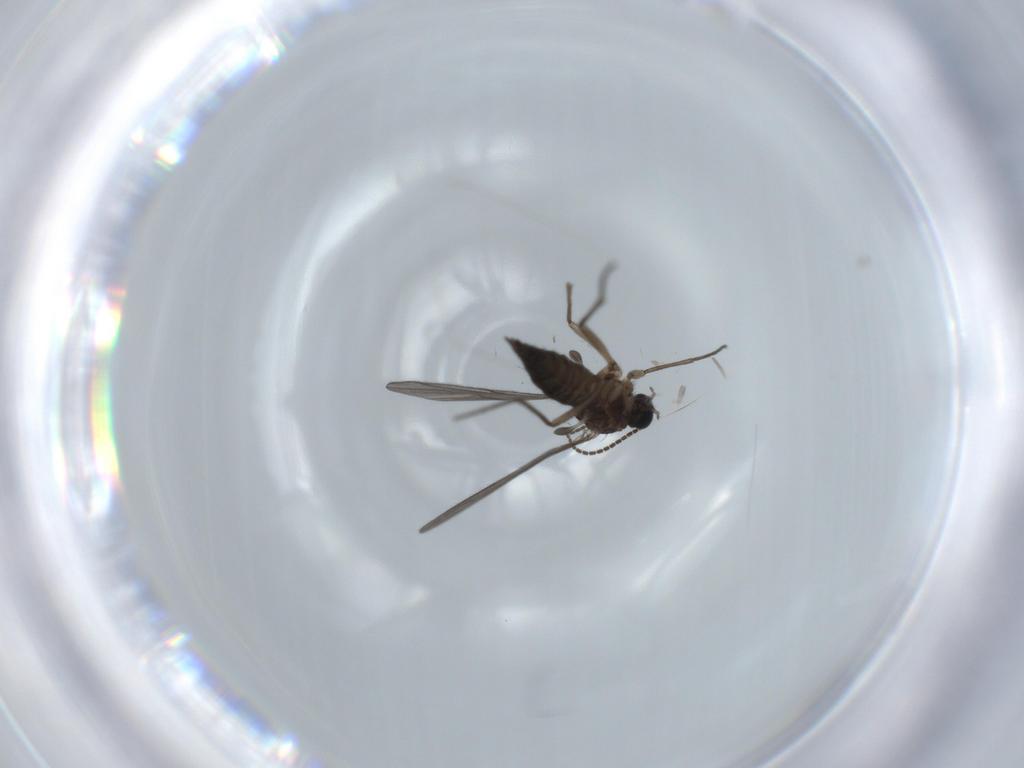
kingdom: Animalia
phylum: Arthropoda
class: Insecta
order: Diptera
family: Sciaridae
